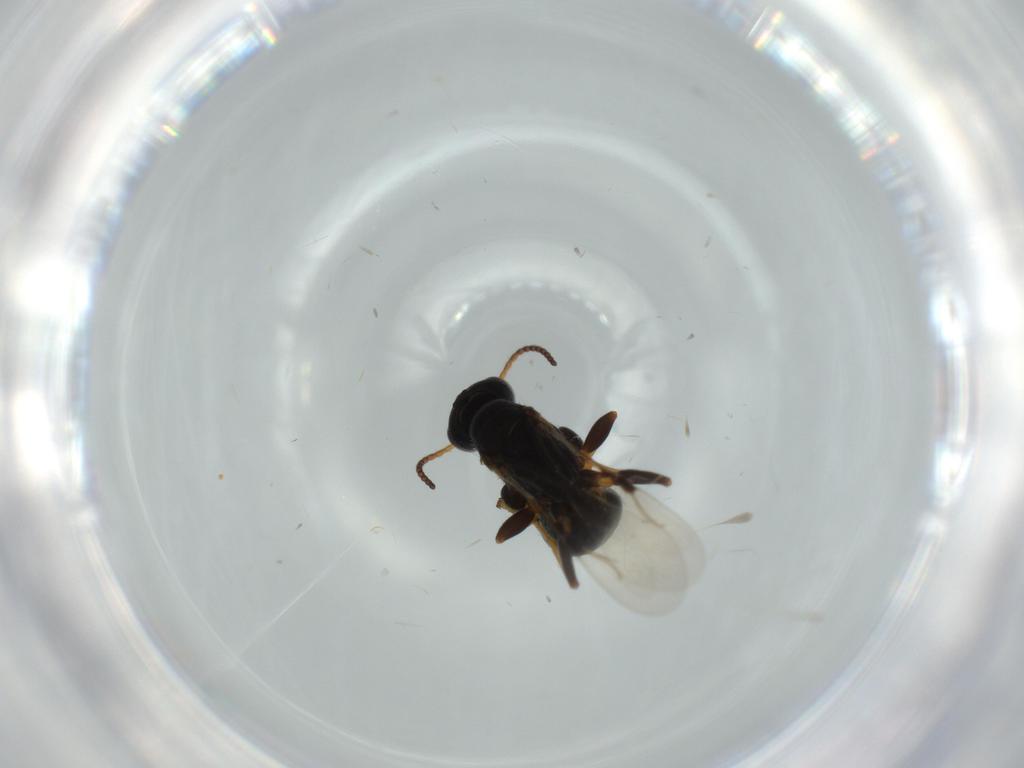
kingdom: Animalia
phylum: Arthropoda
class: Insecta
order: Hymenoptera
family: Bethylidae
